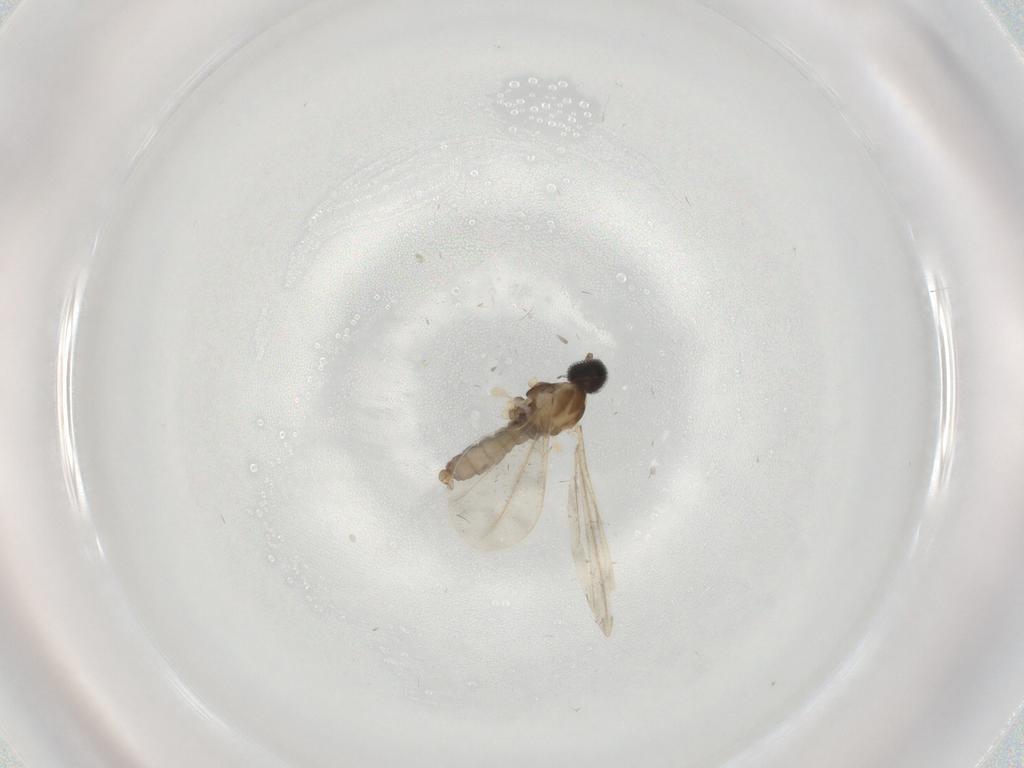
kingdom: Animalia
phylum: Arthropoda
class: Insecta
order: Diptera
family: Cecidomyiidae
